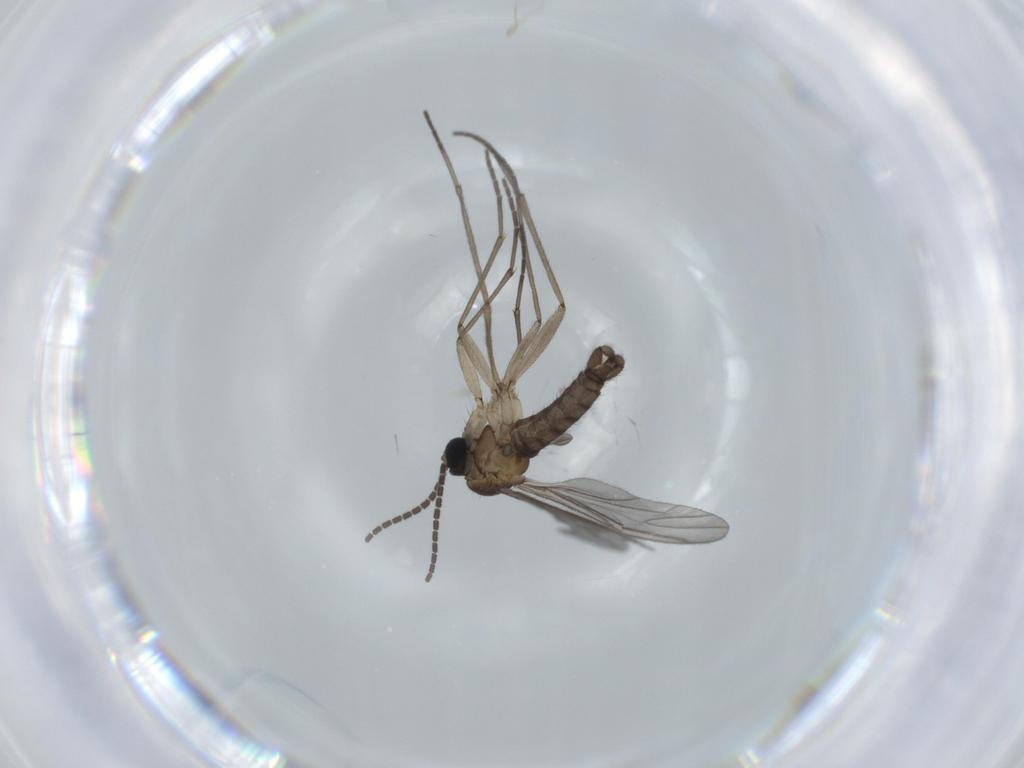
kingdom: Animalia
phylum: Arthropoda
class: Insecta
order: Diptera
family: Sciaridae
